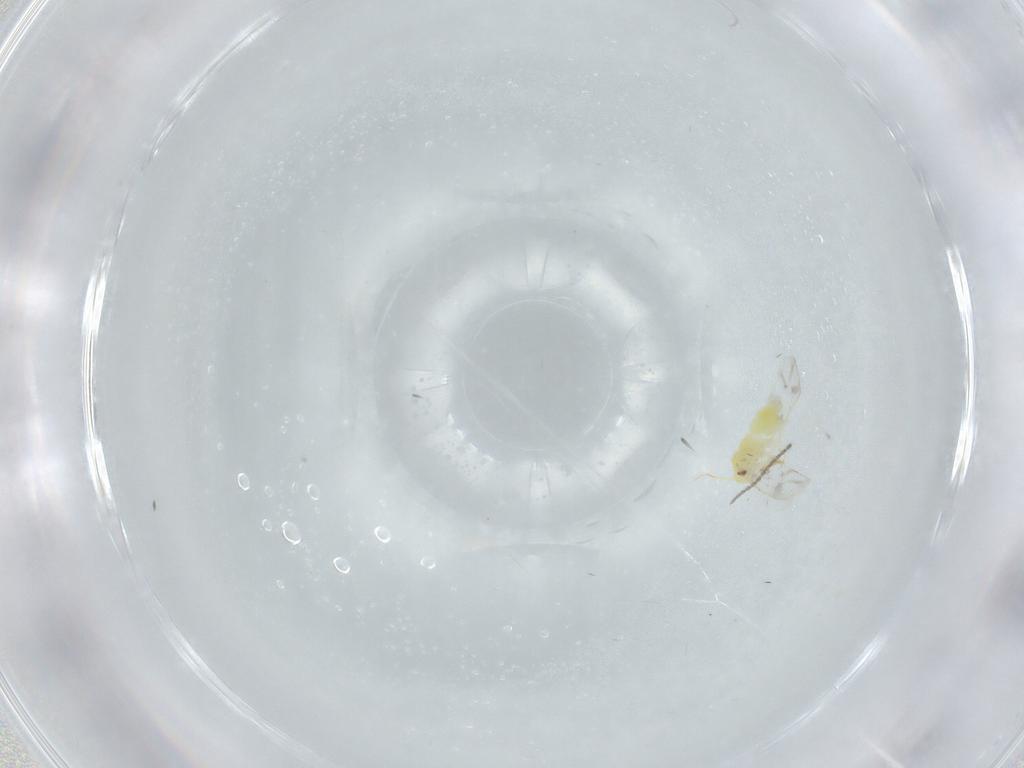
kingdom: Animalia
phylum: Arthropoda
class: Insecta
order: Hemiptera
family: Aleyrodidae
